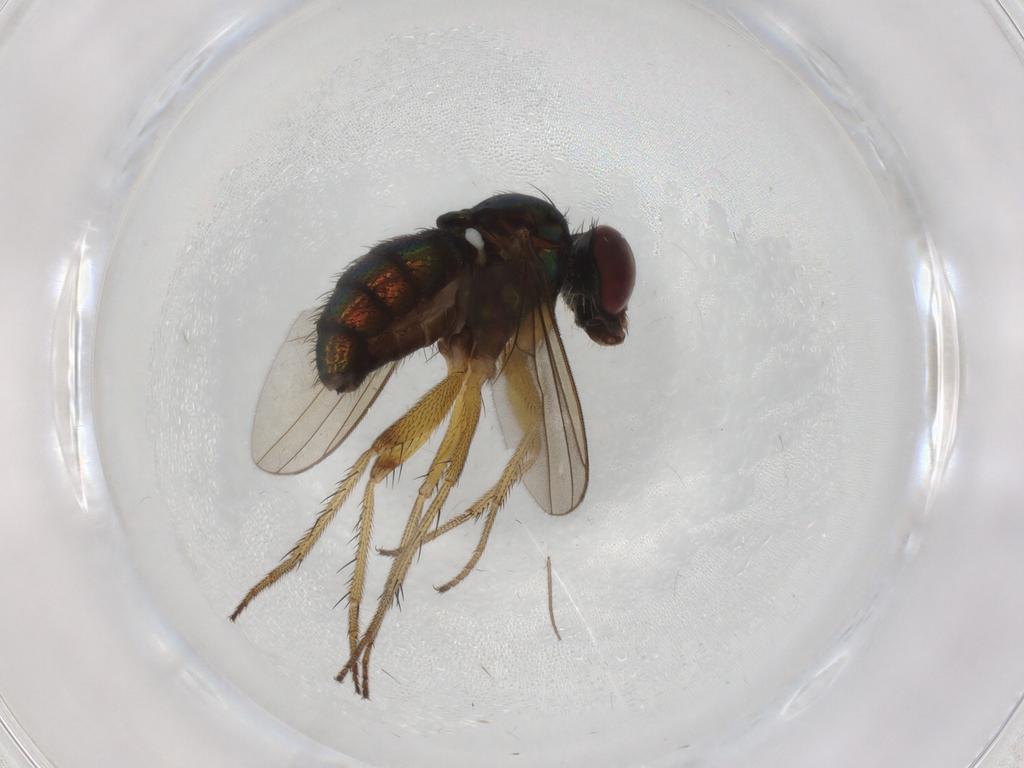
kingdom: Animalia
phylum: Arthropoda
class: Insecta
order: Diptera
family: Dolichopodidae
